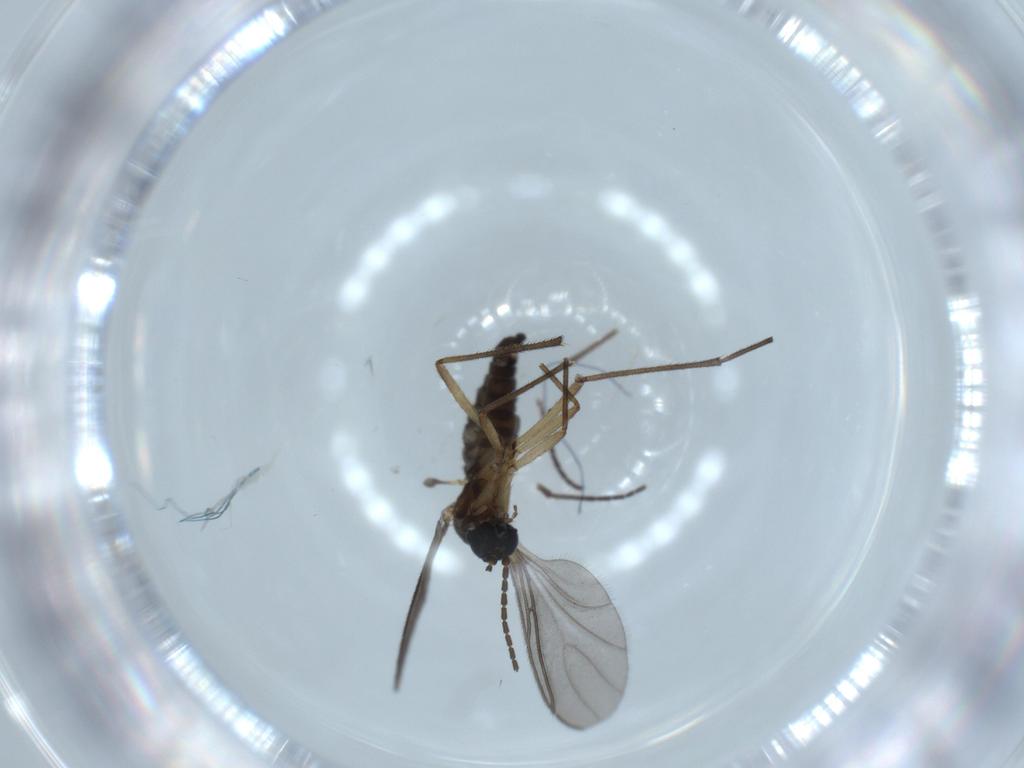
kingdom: Animalia
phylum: Arthropoda
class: Insecta
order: Diptera
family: Sciaridae
